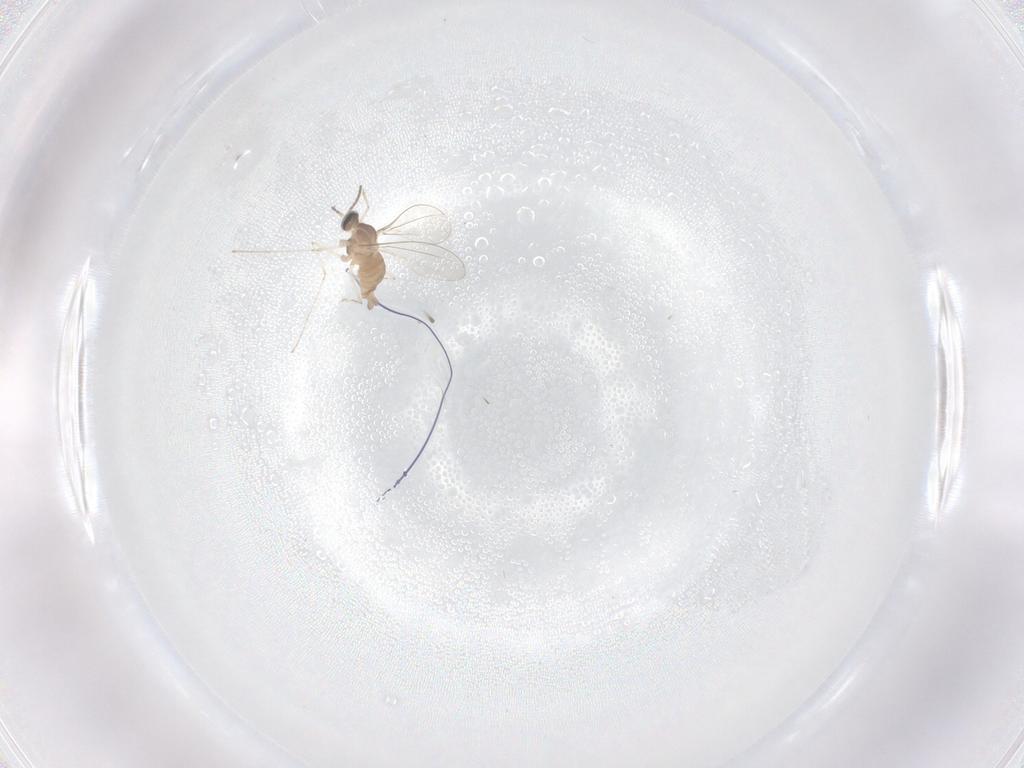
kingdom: Animalia
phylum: Arthropoda
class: Insecta
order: Diptera
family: Cecidomyiidae
